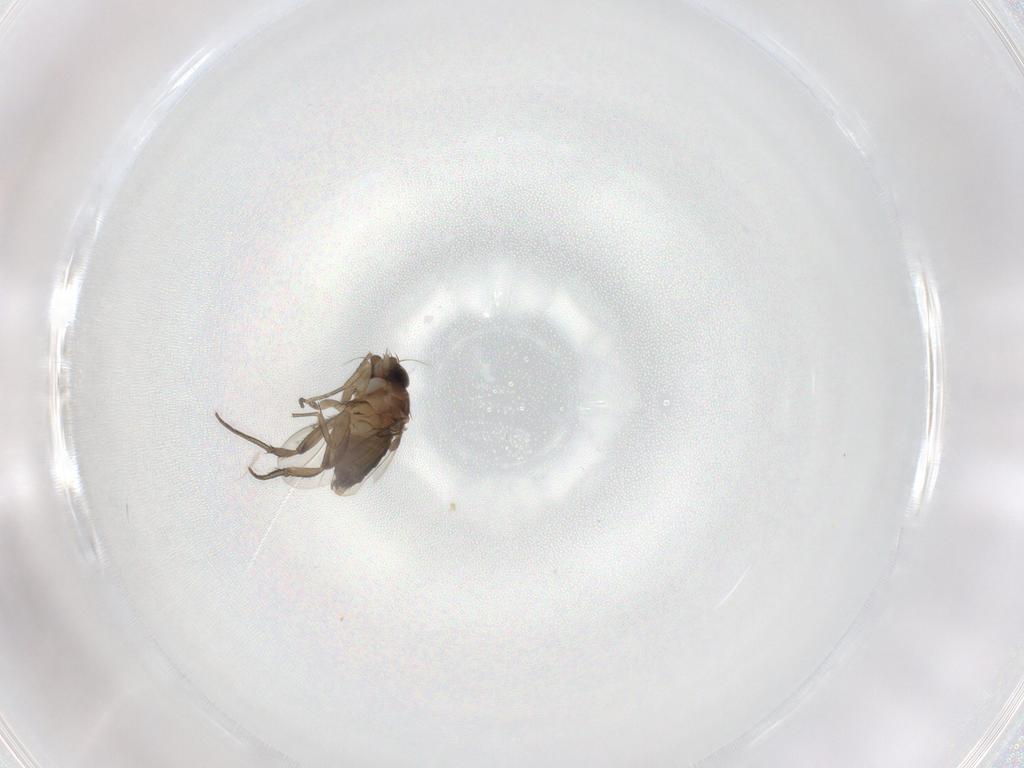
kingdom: Animalia
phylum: Arthropoda
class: Insecta
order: Diptera
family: Phoridae
